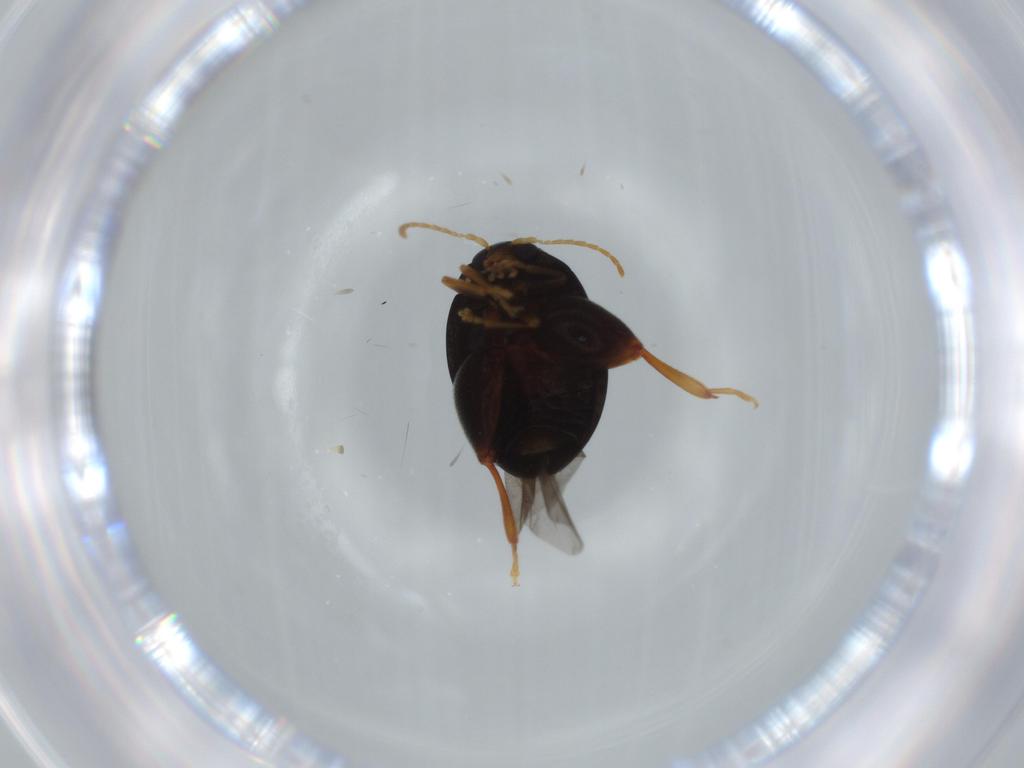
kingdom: Animalia
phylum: Arthropoda
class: Insecta
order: Coleoptera
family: Chrysomelidae
